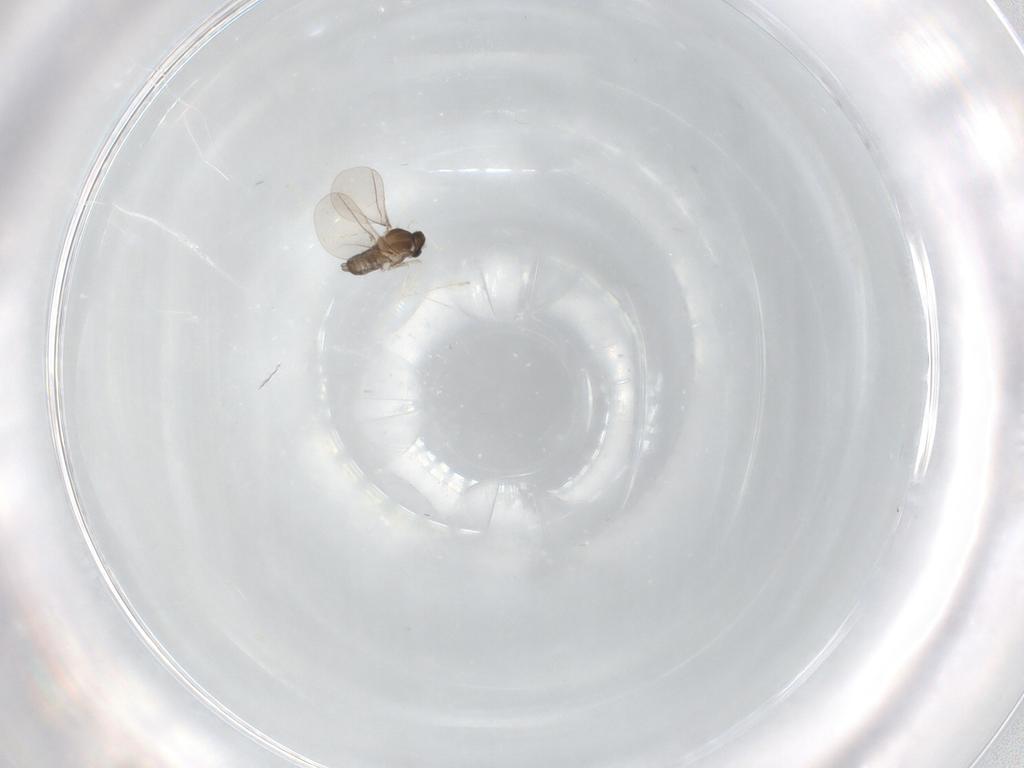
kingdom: Animalia
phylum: Arthropoda
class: Insecta
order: Diptera
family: Cecidomyiidae
